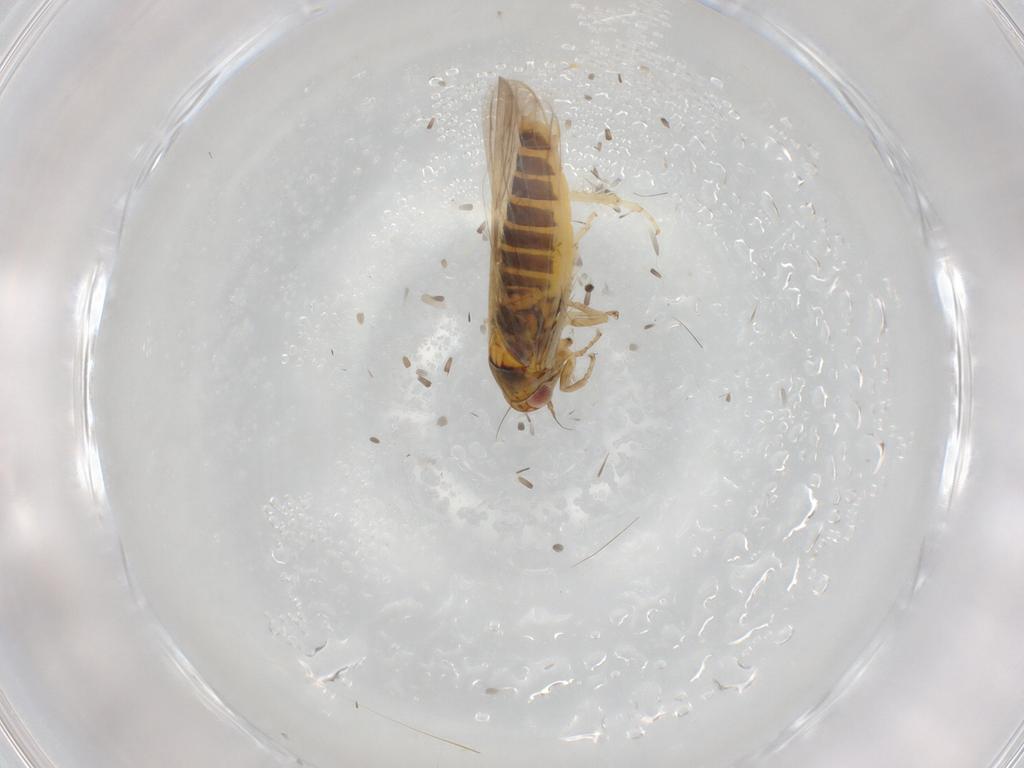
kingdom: Animalia
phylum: Arthropoda
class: Insecta
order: Hemiptera
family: Cicadellidae
